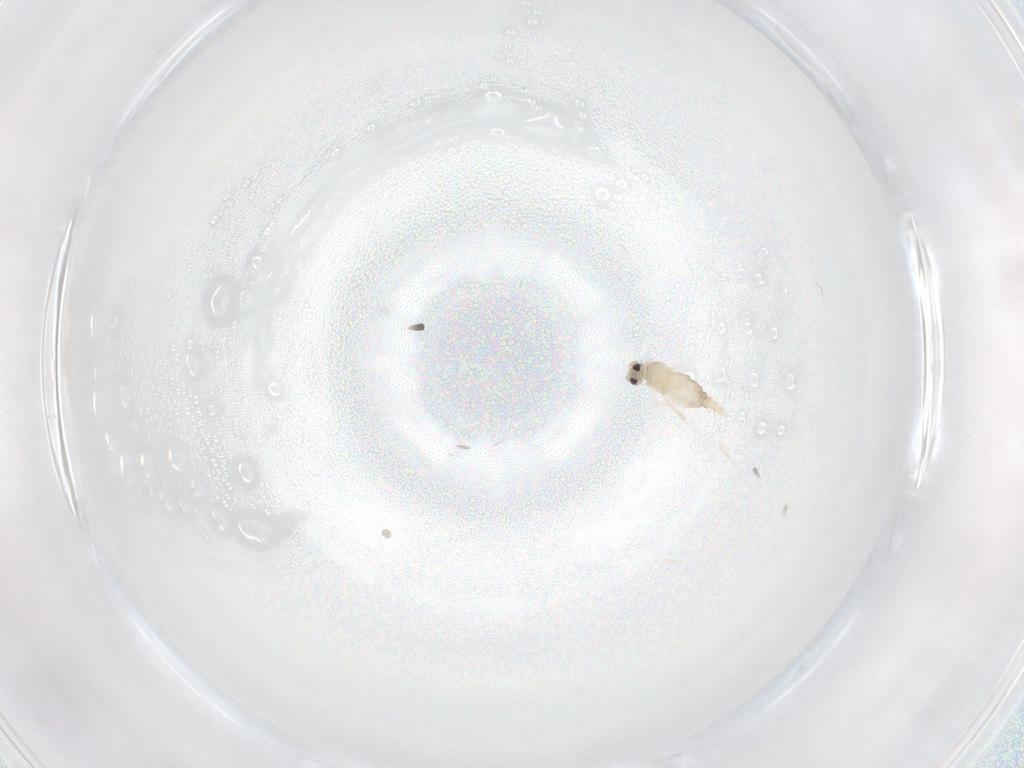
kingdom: Animalia
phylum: Arthropoda
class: Insecta
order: Diptera
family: Cecidomyiidae
